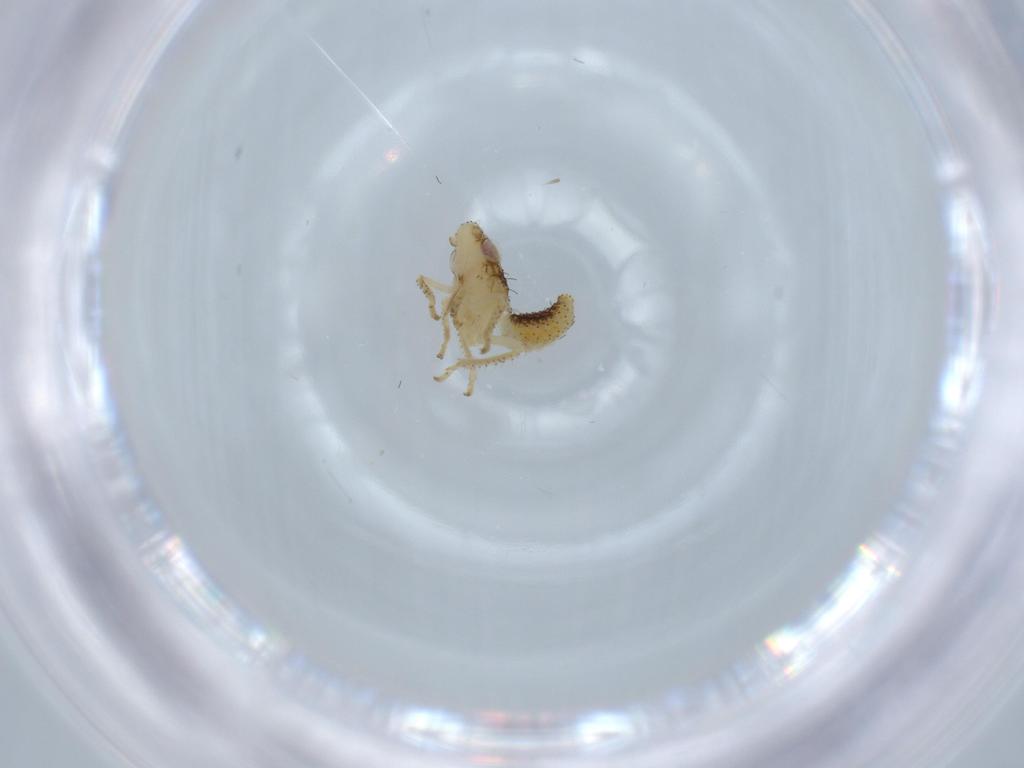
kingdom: Animalia
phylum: Arthropoda
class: Insecta
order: Hemiptera
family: Cicadellidae
